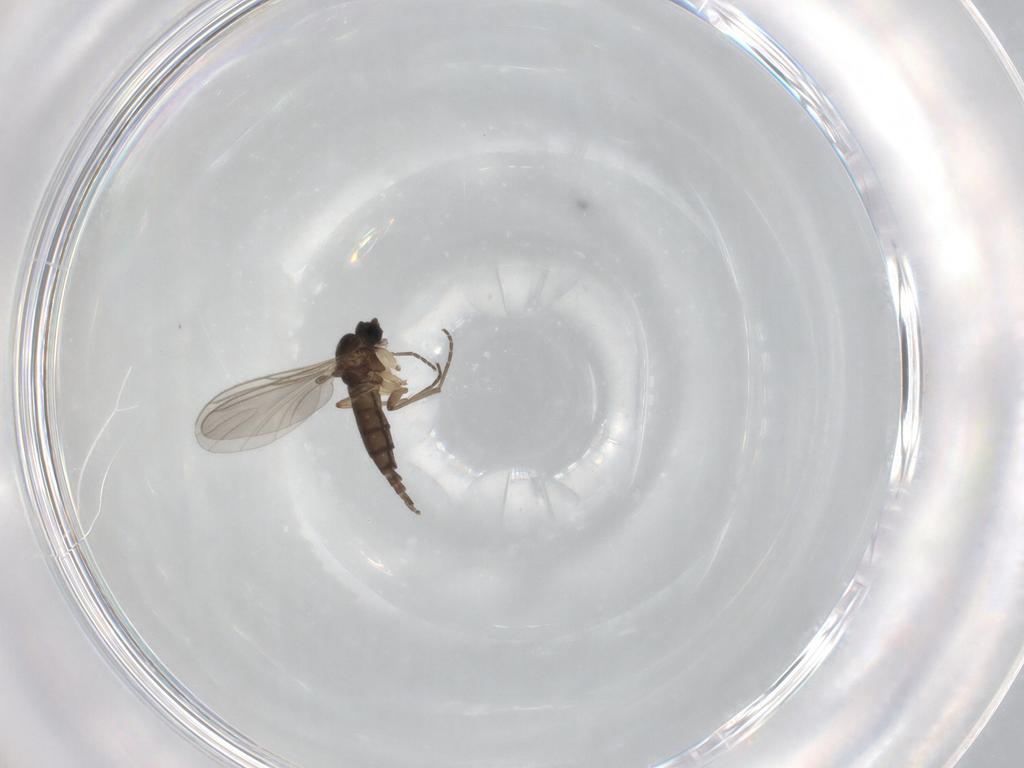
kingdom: Animalia
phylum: Arthropoda
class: Insecta
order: Diptera
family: Sciaridae
